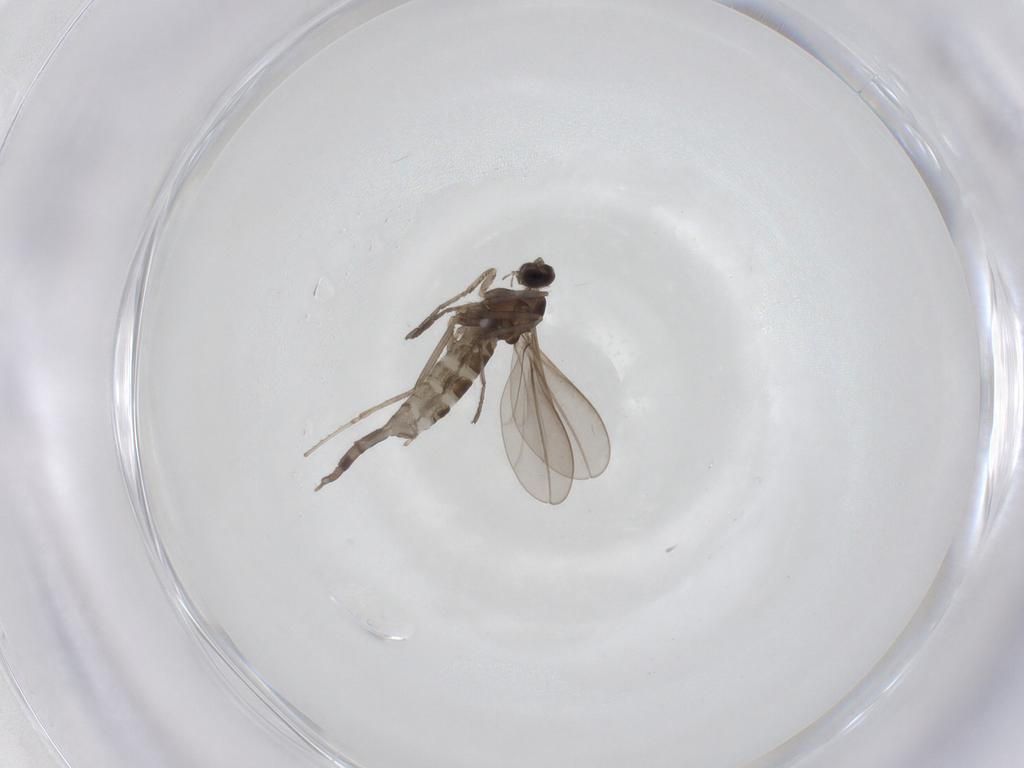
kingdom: Animalia
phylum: Arthropoda
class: Insecta
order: Diptera
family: Cecidomyiidae
